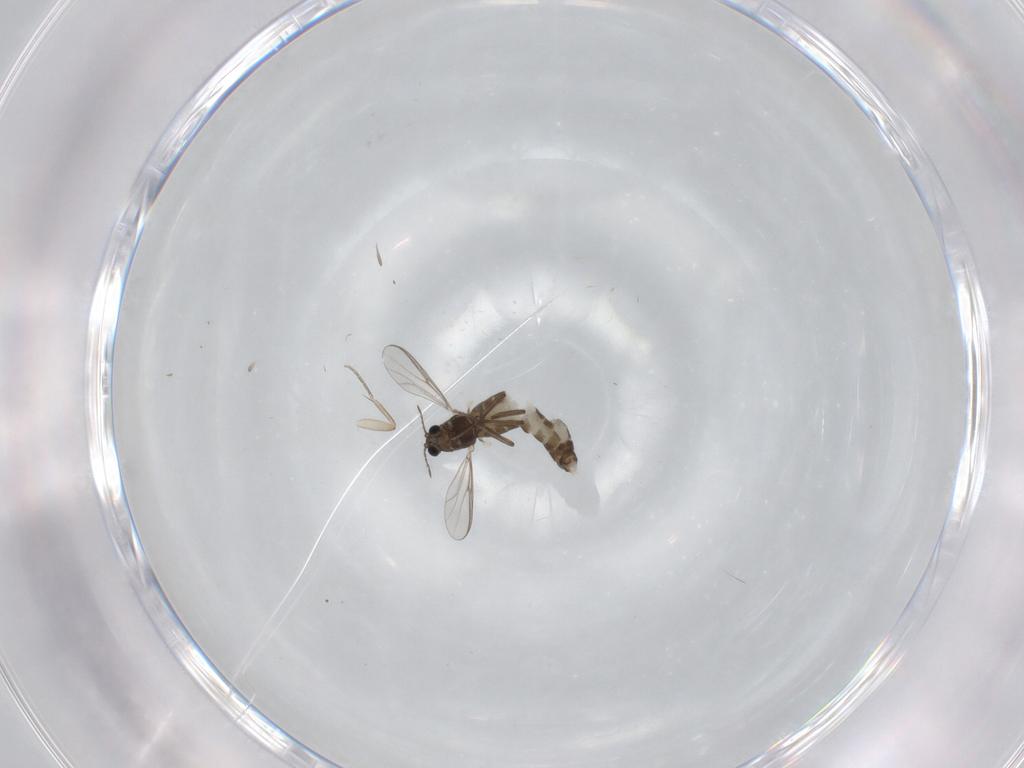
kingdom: Animalia
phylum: Arthropoda
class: Insecta
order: Diptera
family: Chironomidae
